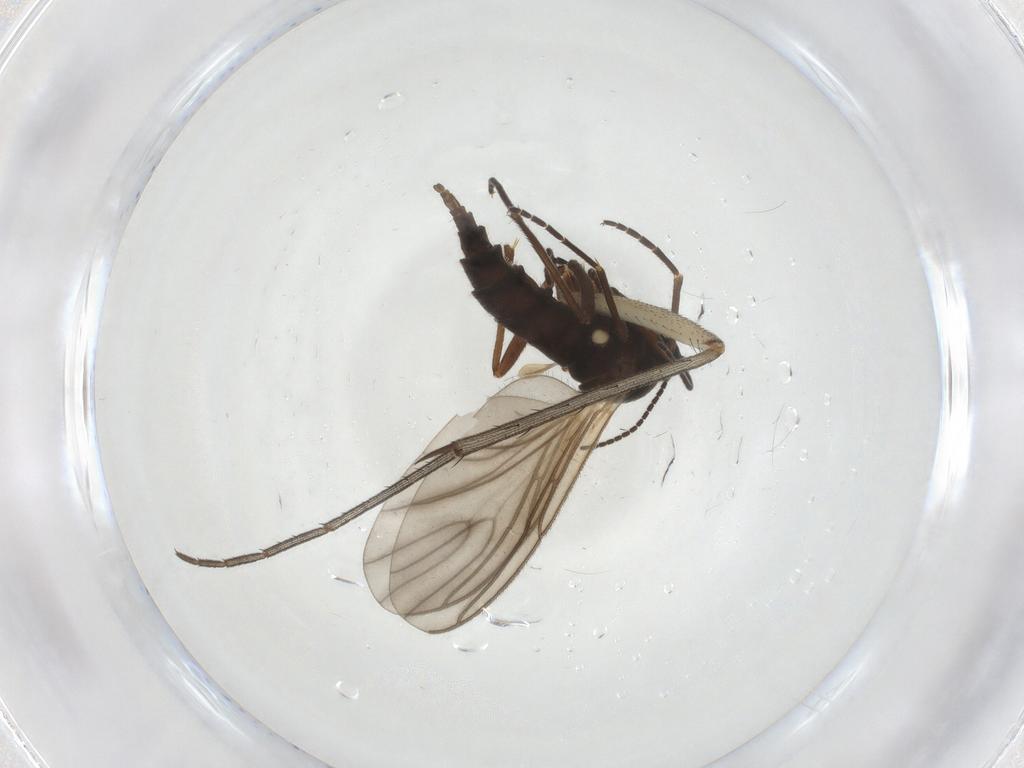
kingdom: Animalia
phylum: Arthropoda
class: Insecta
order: Diptera
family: Sciaridae
